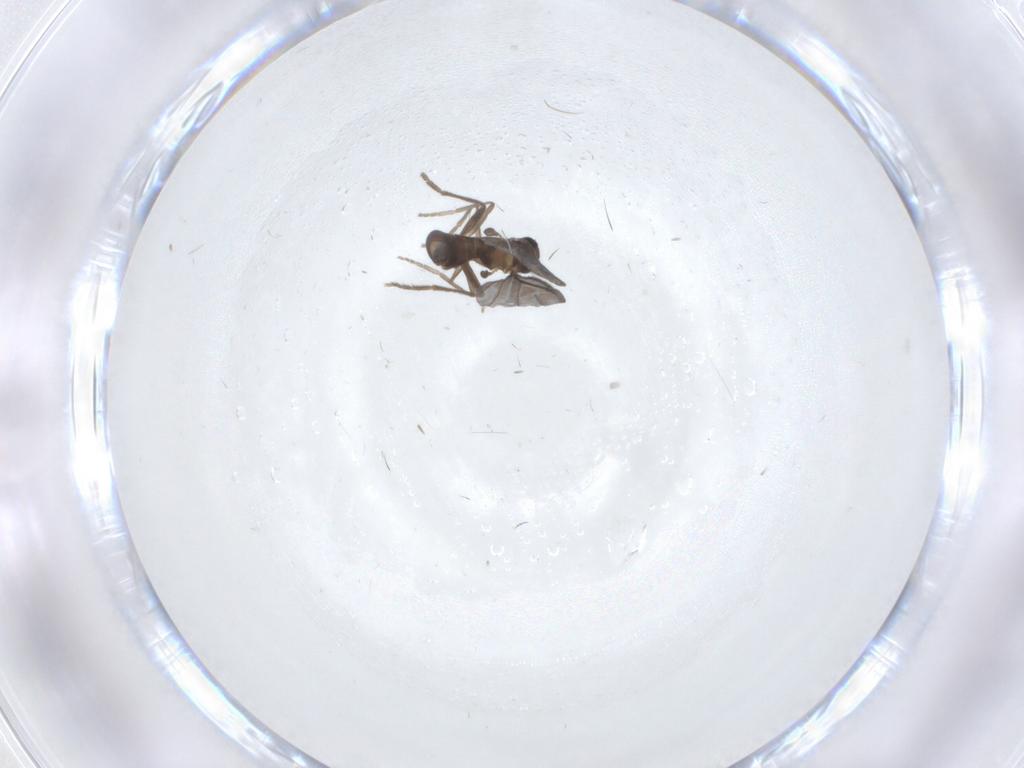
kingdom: Animalia
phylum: Arthropoda
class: Insecta
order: Diptera
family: Phoridae
